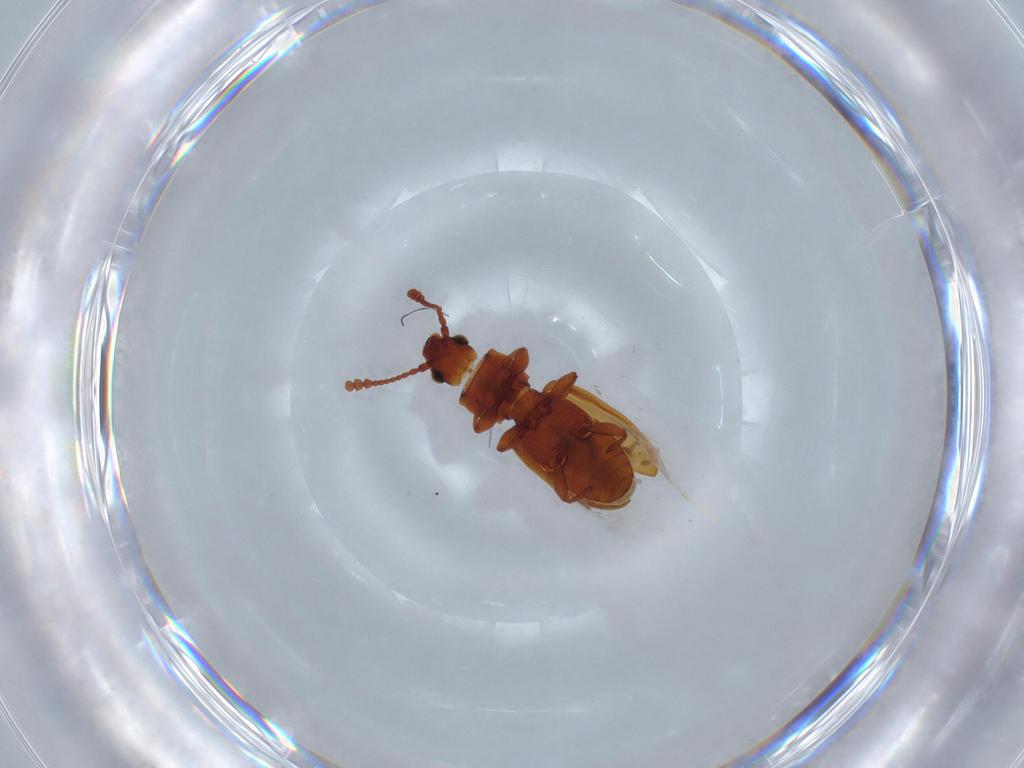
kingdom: Animalia
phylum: Arthropoda
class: Insecta
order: Coleoptera
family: Silvanidae
